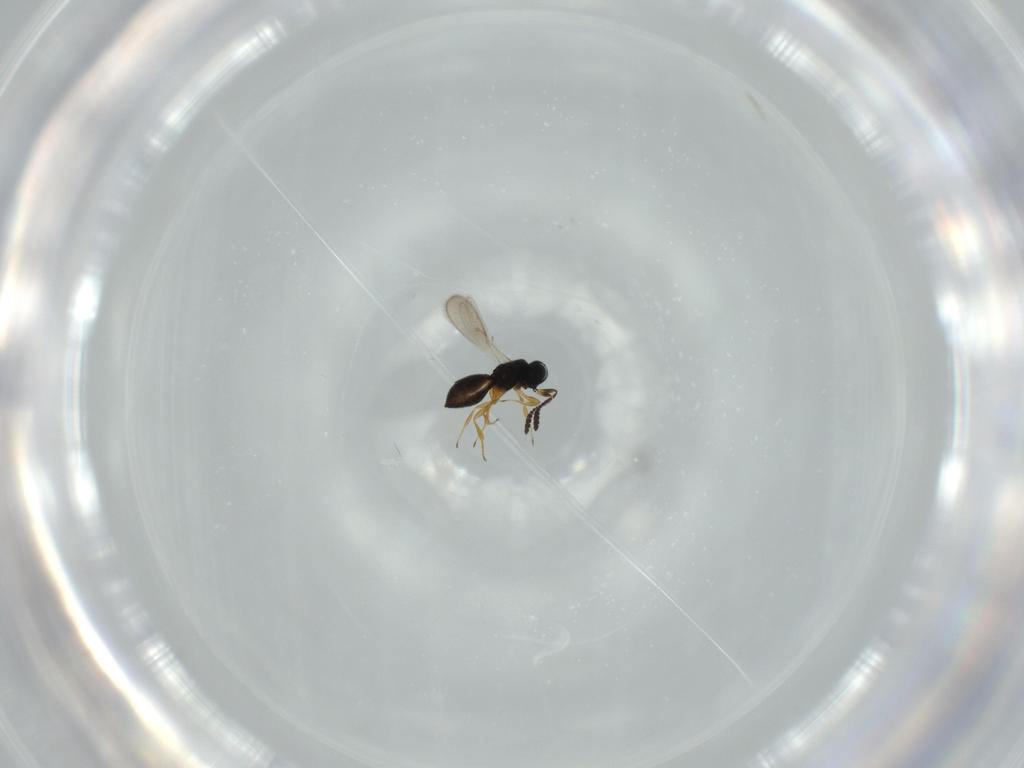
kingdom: Animalia
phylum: Arthropoda
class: Insecta
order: Hymenoptera
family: Scelionidae
